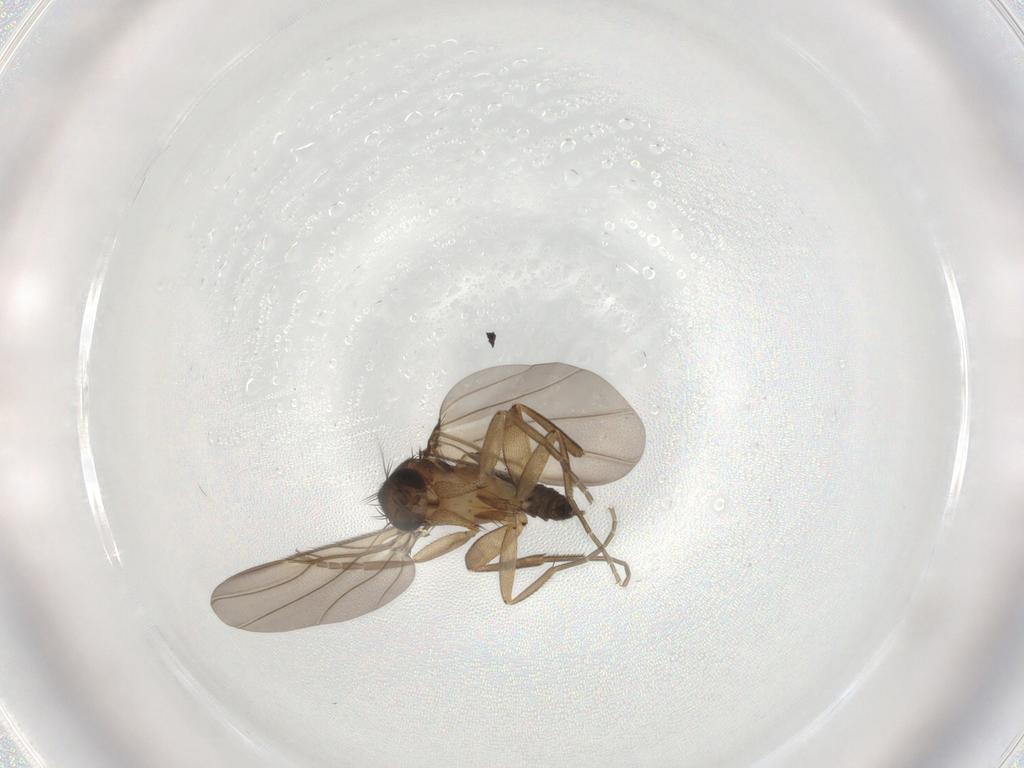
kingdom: Animalia
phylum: Arthropoda
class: Insecta
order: Diptera
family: Phoridae
